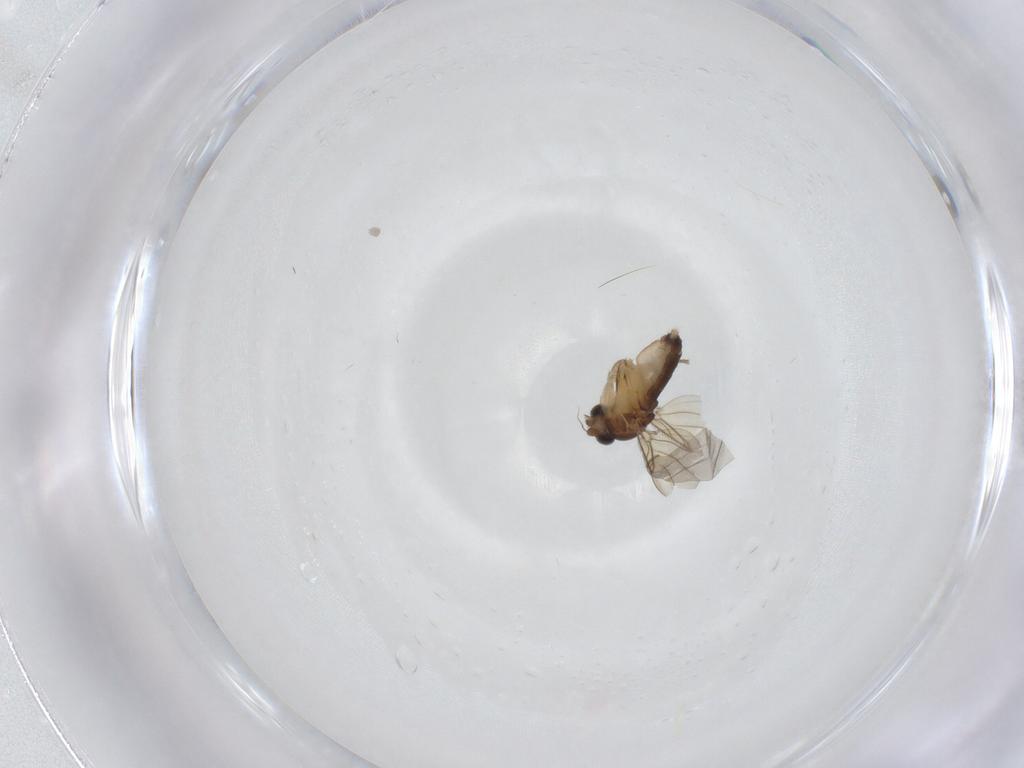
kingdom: Animalia
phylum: Arthropoda
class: Insecta
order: Diptera
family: Phoridae
